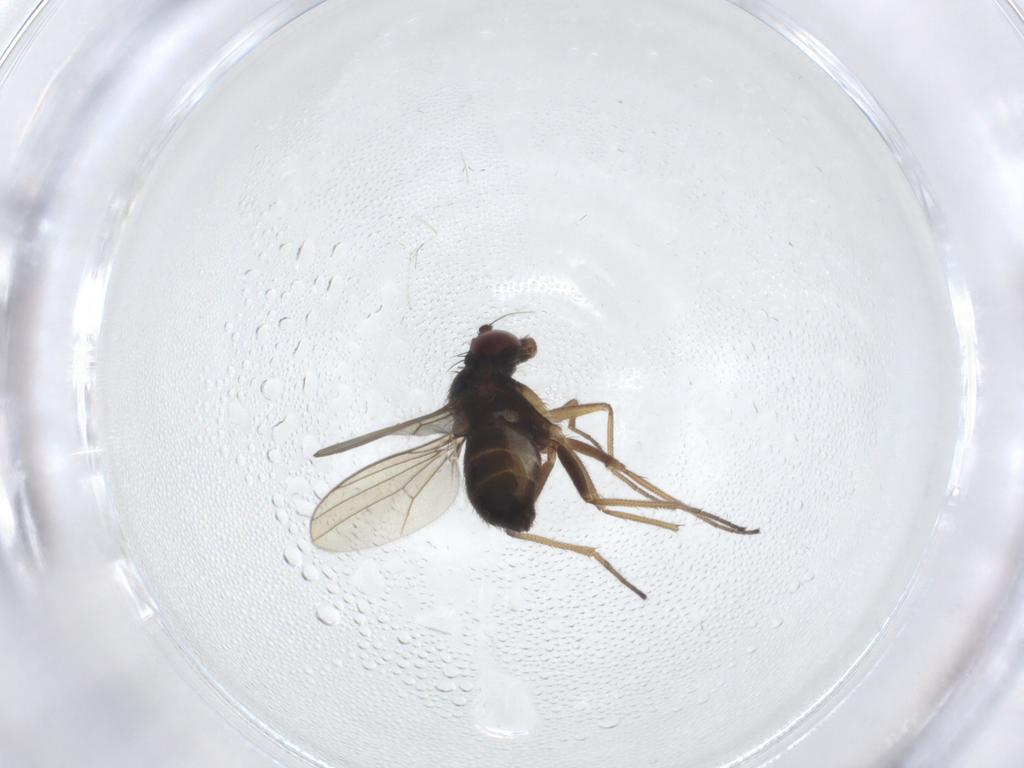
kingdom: Animalia
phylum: Arthropoda
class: Insecta
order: Diptera
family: Dolichopodidae
